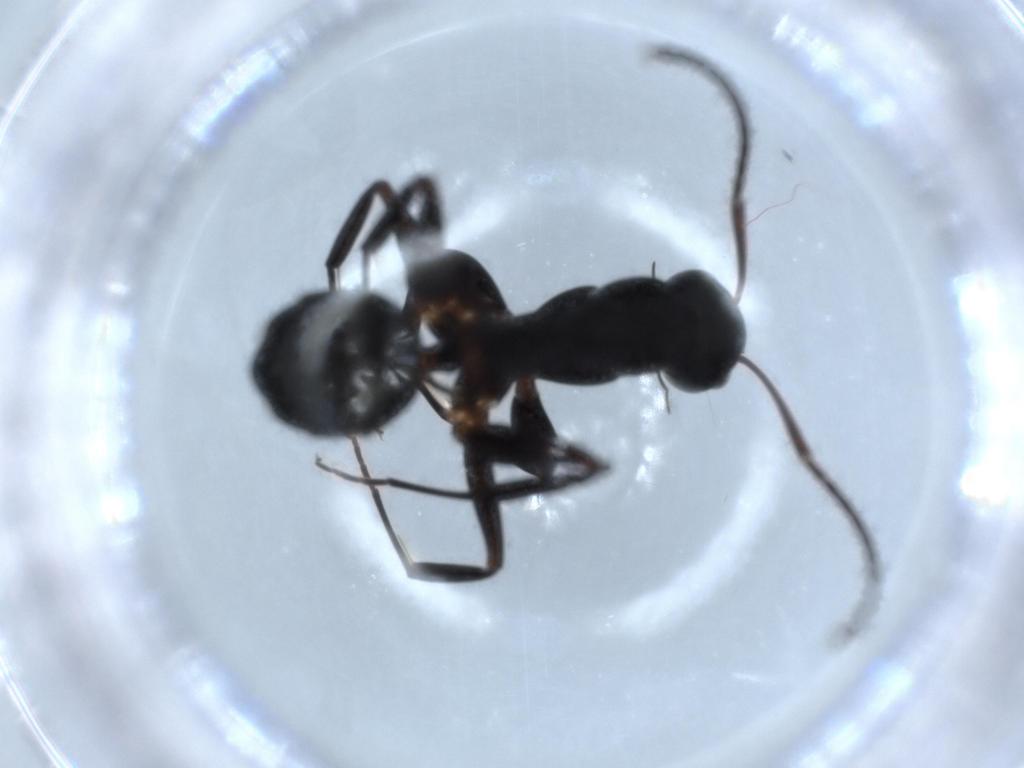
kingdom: Animalia
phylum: Arthropoda
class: Insecta
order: Hymenoptera
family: Formicidae
